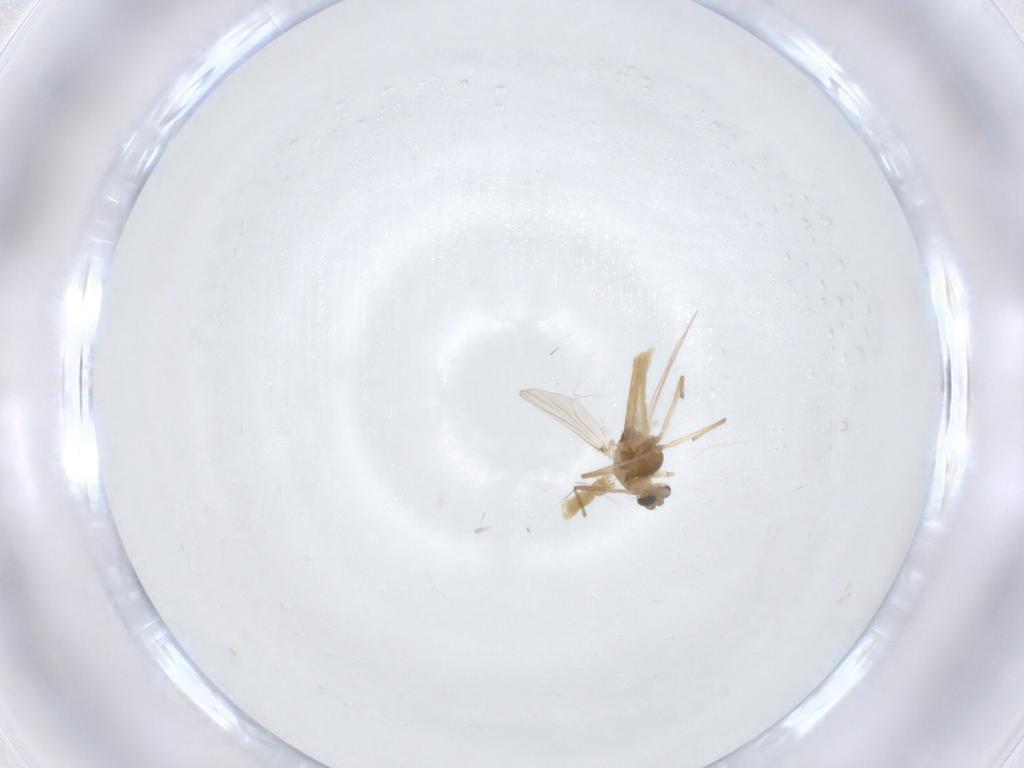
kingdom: Animalia
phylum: Arthropoda
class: Insecta
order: Diptera
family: Chironomidae
